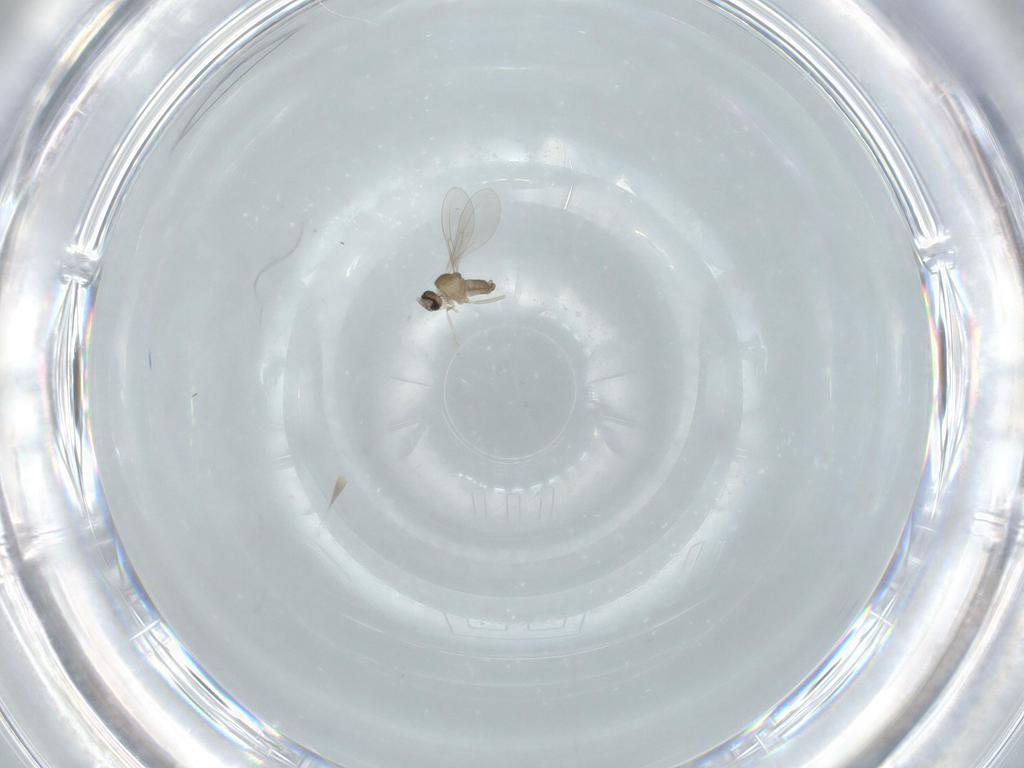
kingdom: Animalia
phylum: Arthropoda
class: Insecta
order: Diptera
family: Cecidomyiidae
